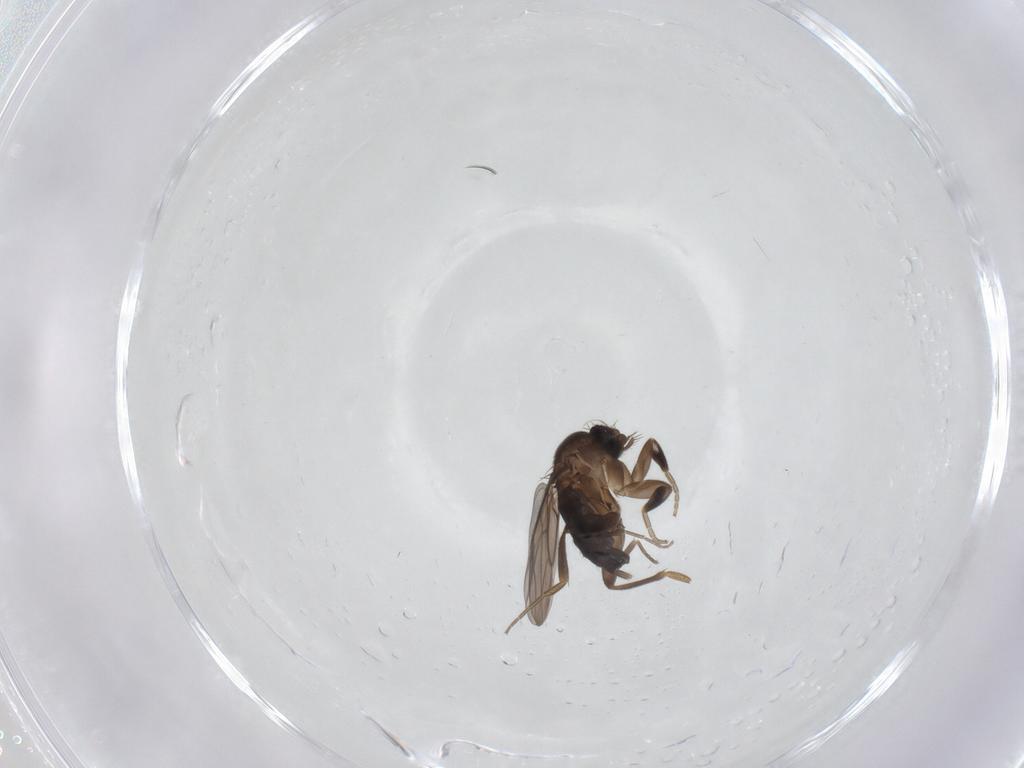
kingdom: Animalia
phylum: Arthropoda
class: Insecta
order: Diptera
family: Phoridae
